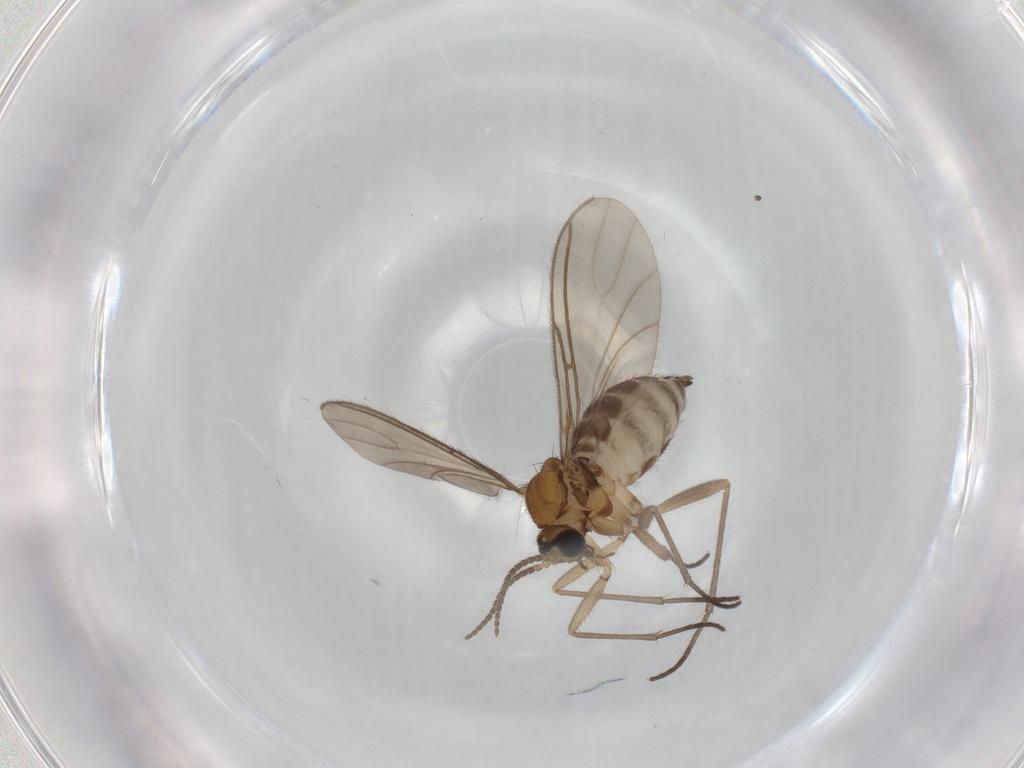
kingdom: Animalia
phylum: Arthropoda
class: Insecta
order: Diptera
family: Sciaridae
